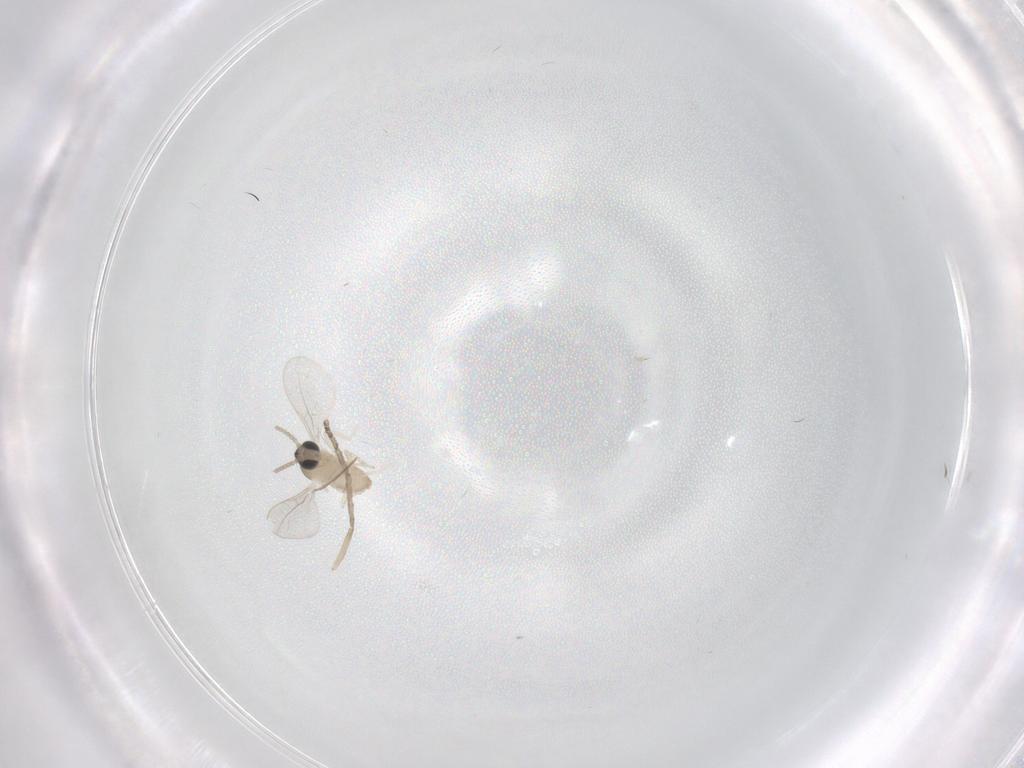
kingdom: Animalia
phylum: Arthropoda
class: Insecta
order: Diptera
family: Cecidomyiidae
